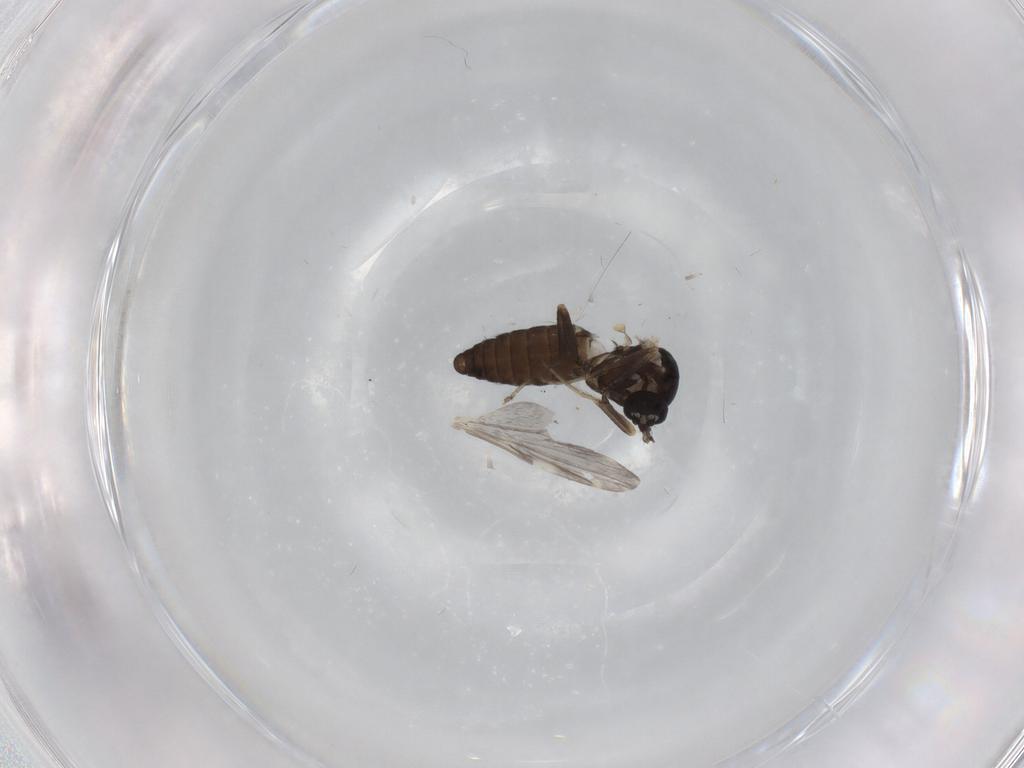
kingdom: Animalia
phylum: Arthropoda
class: Insecta
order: Diptera
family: Ceratopogonidae
